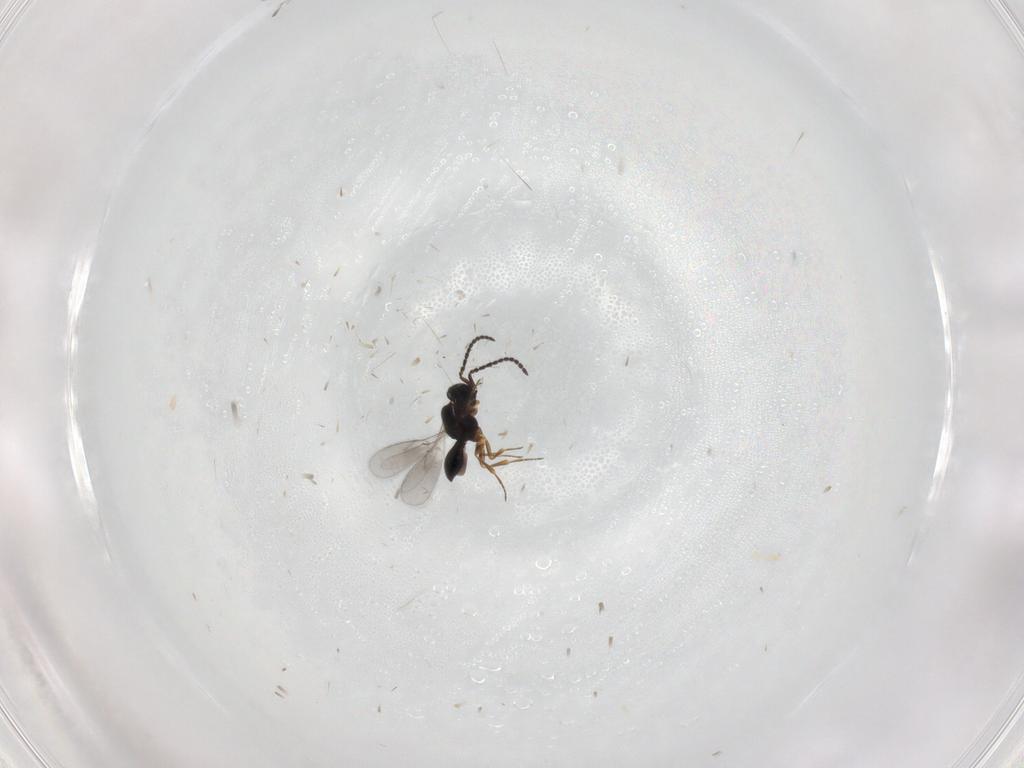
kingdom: Animalia
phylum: Arthropoda
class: Insecta
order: Hymenoptera
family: Scelionidae
